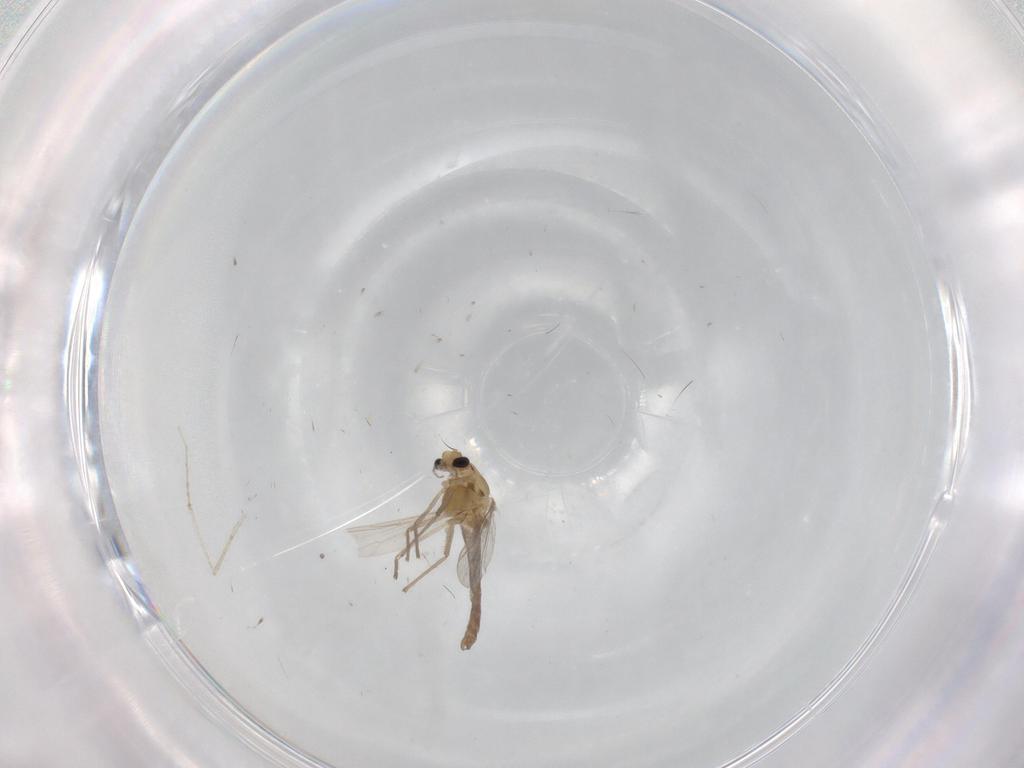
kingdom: Animalia
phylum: Arthropoda
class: Insecta
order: Diptera
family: Chironomidae
